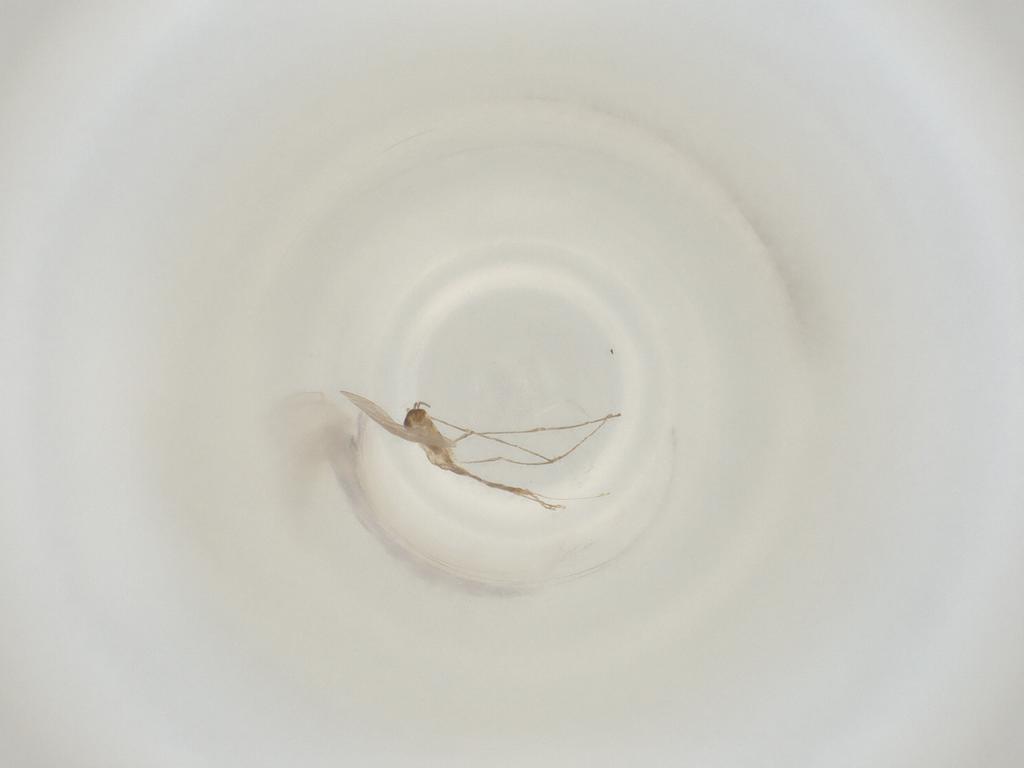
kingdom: Animalia
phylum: Arthropoda
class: Insecta
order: Diptera
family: Cecidomyiidae
